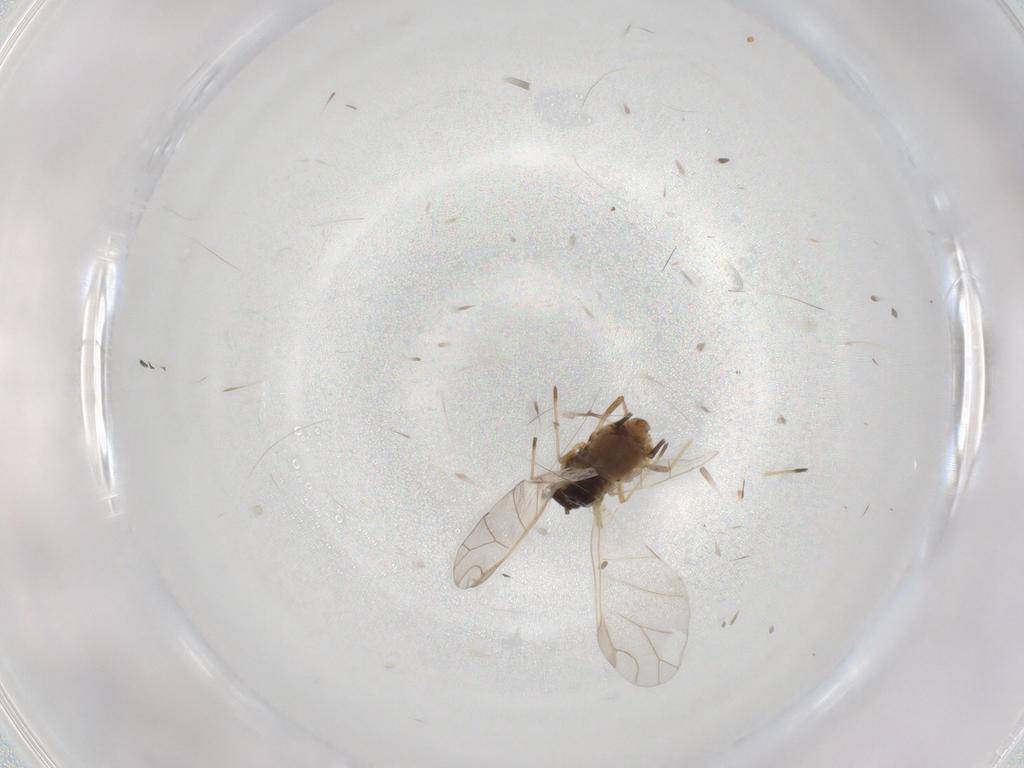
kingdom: Animalia
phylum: Arthropoda
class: Insecta
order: Hemiptera
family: Aphididae
